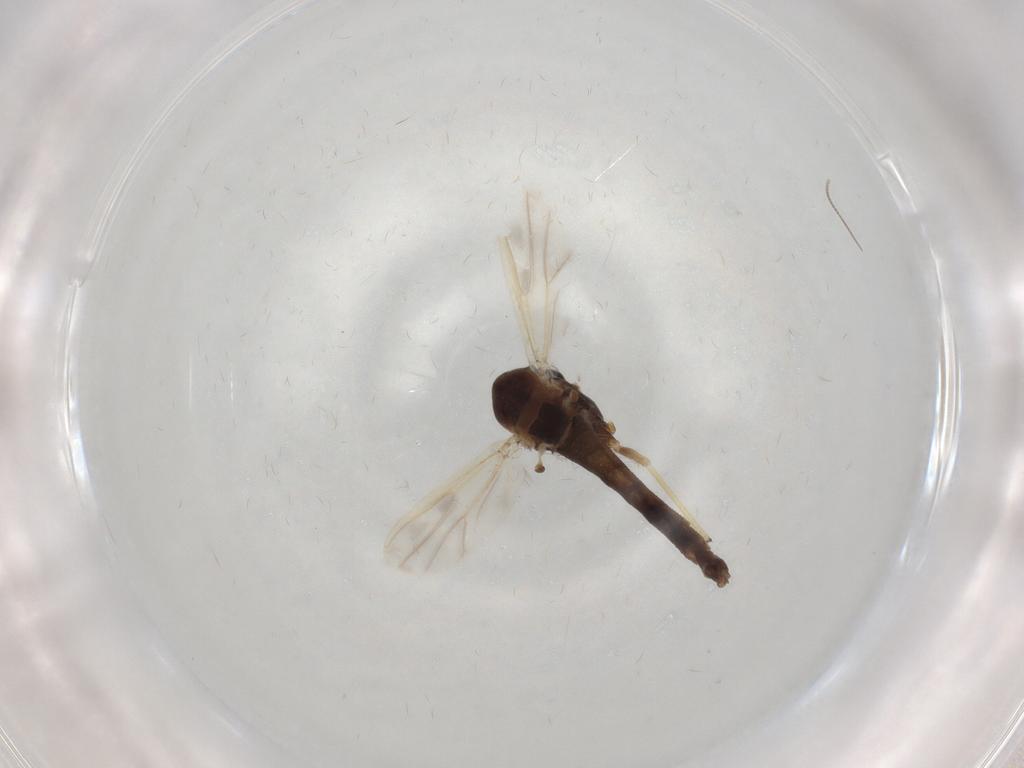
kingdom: Animalia
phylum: Arthropoda
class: Insecta
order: Diptera
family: Chironomidae
